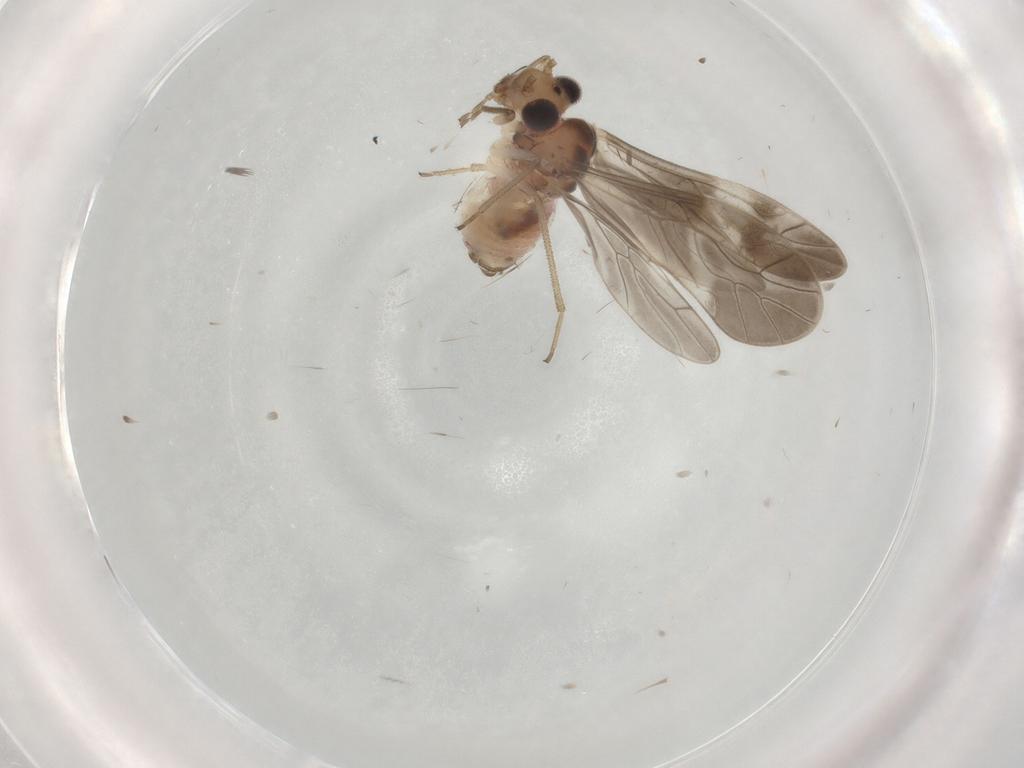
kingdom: Animalia
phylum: Arthropoda
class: Insecta
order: Psocodea
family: Caeciliusidae
